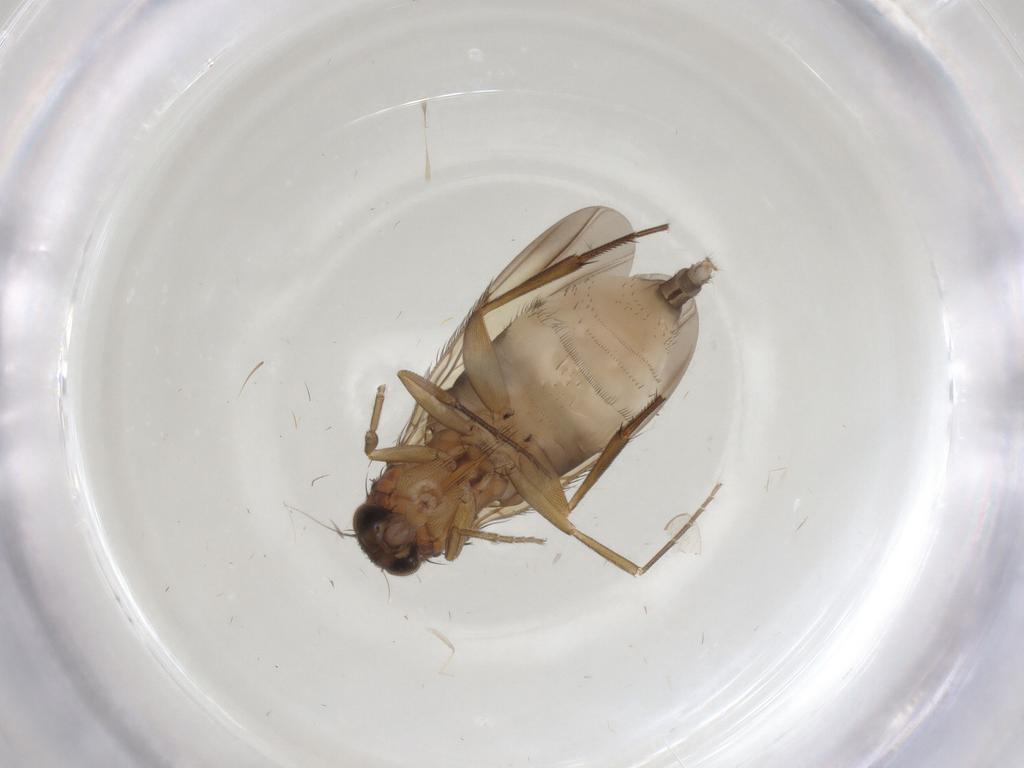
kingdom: Animalia
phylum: Arthropoda
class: Insecta
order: Diptera
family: Phoridae
